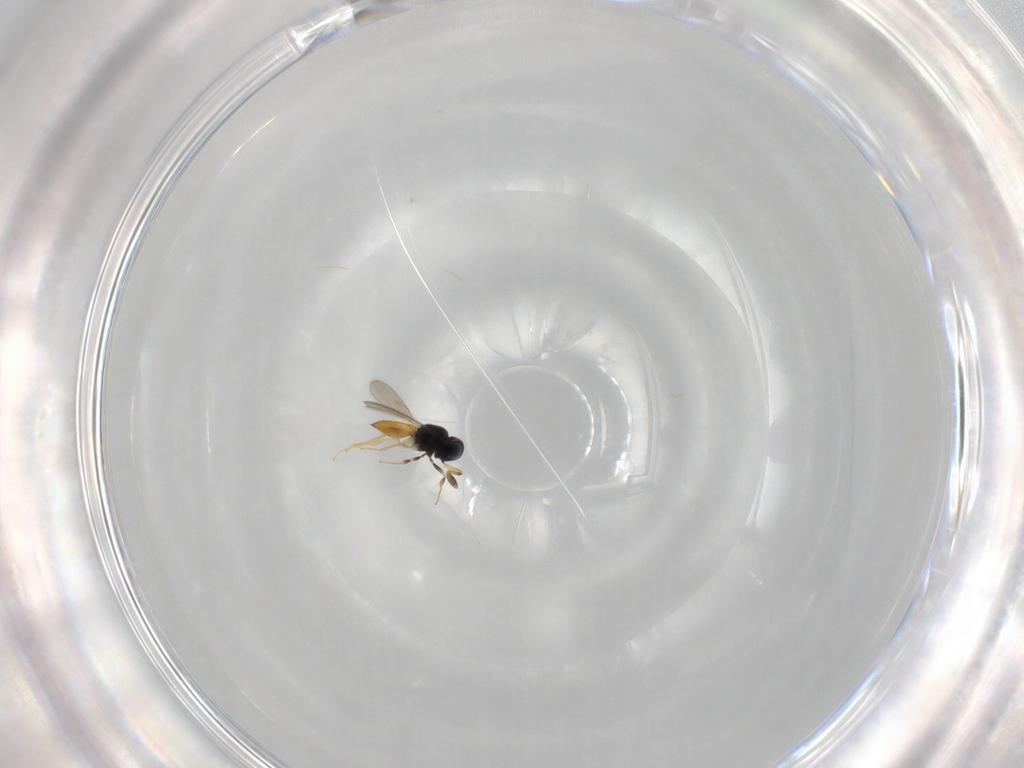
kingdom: Animalia
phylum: Arthropoda
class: Insecta
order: Hymenoptera
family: Scelionidae
